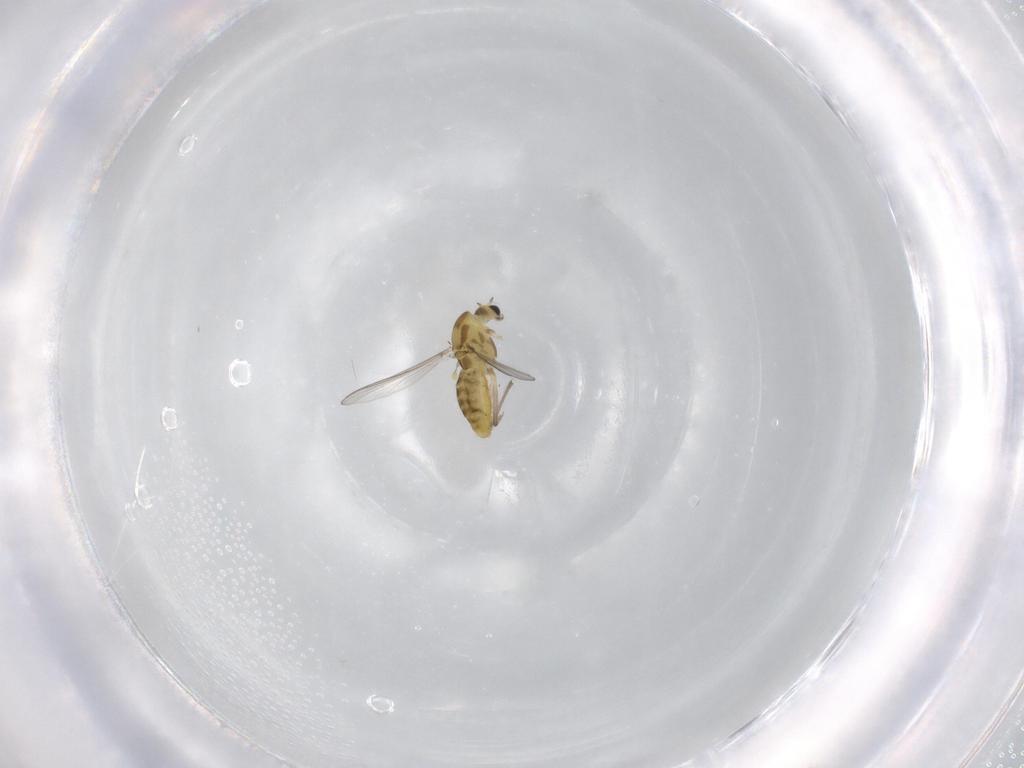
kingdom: Animalia
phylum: Arthropoda
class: Insecta
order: Diptera
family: Chironomidae
